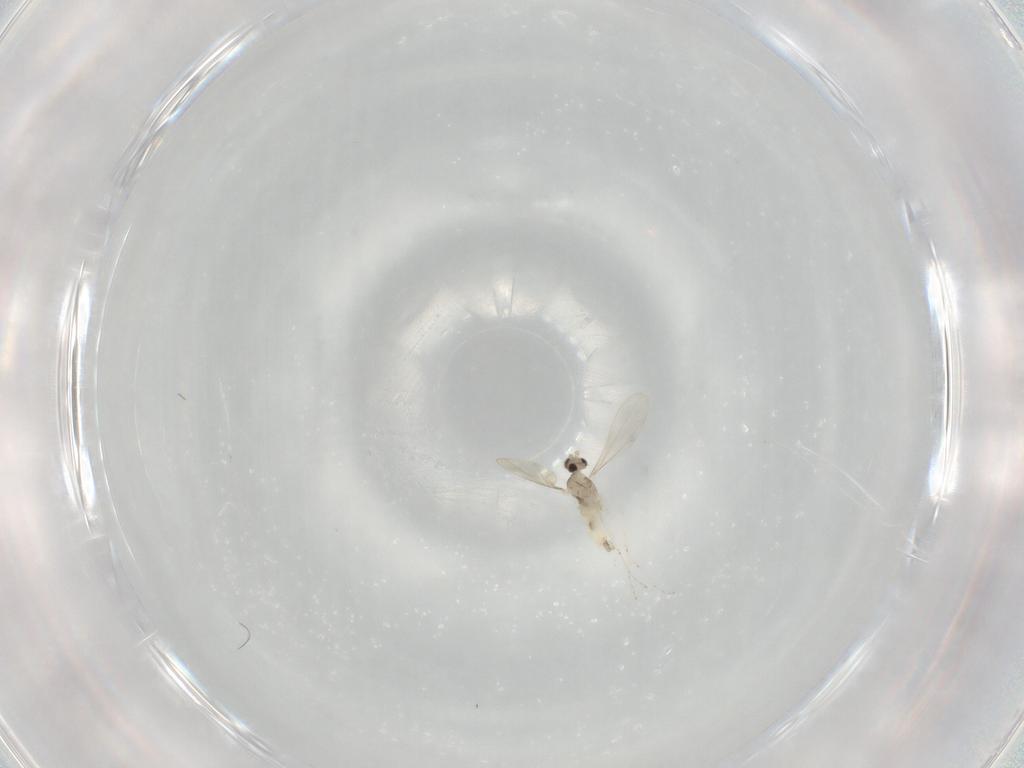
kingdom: Animalia
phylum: Arthropoda
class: Insecta
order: Diptera
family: Cecidomyiidae
